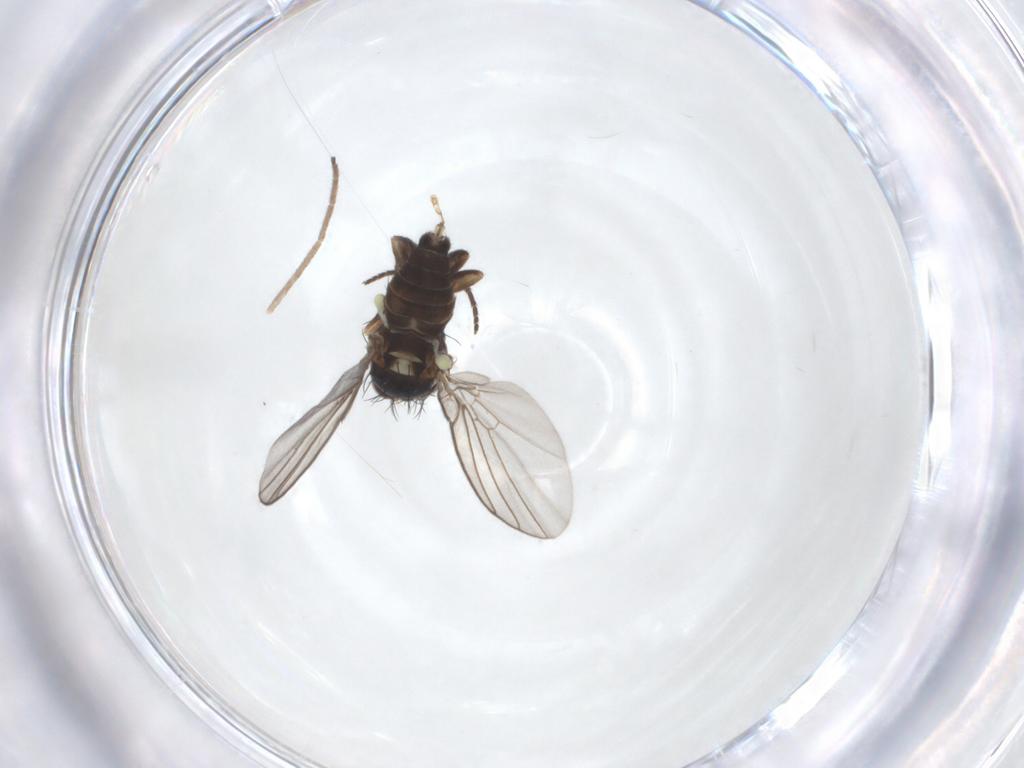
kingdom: Animalia
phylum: Arthropoda
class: Insecta
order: Diptera
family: Agromyzidae
